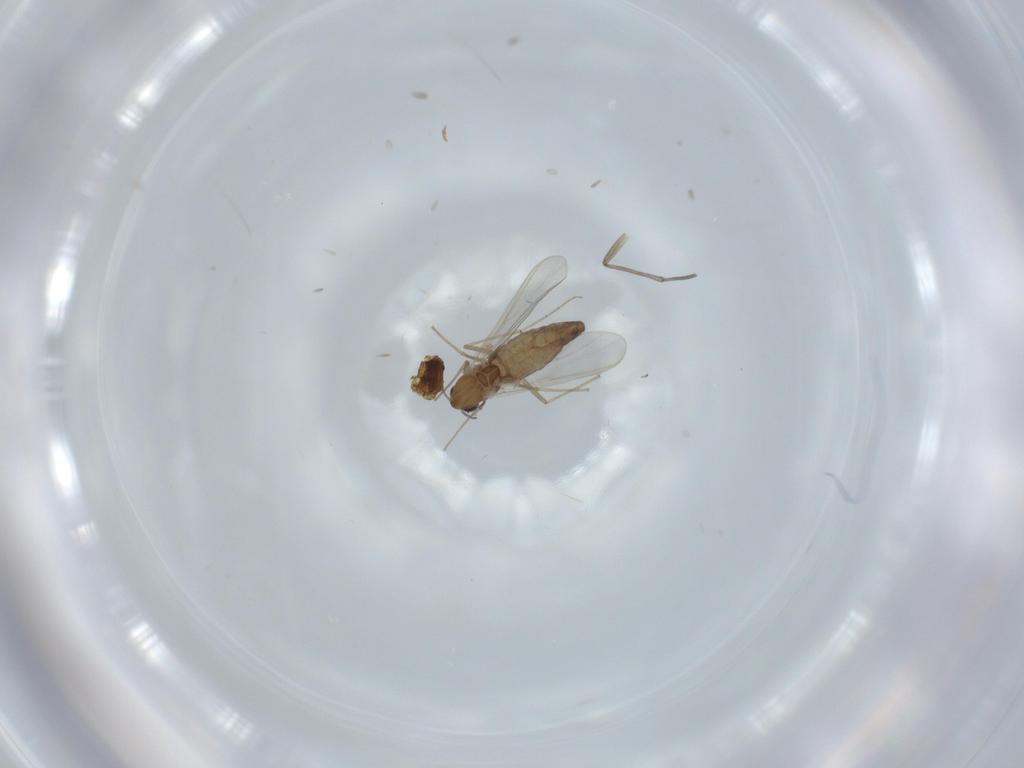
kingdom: Animalia
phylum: Arthropoda
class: Insecta
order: Diptera
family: Chironomidae
